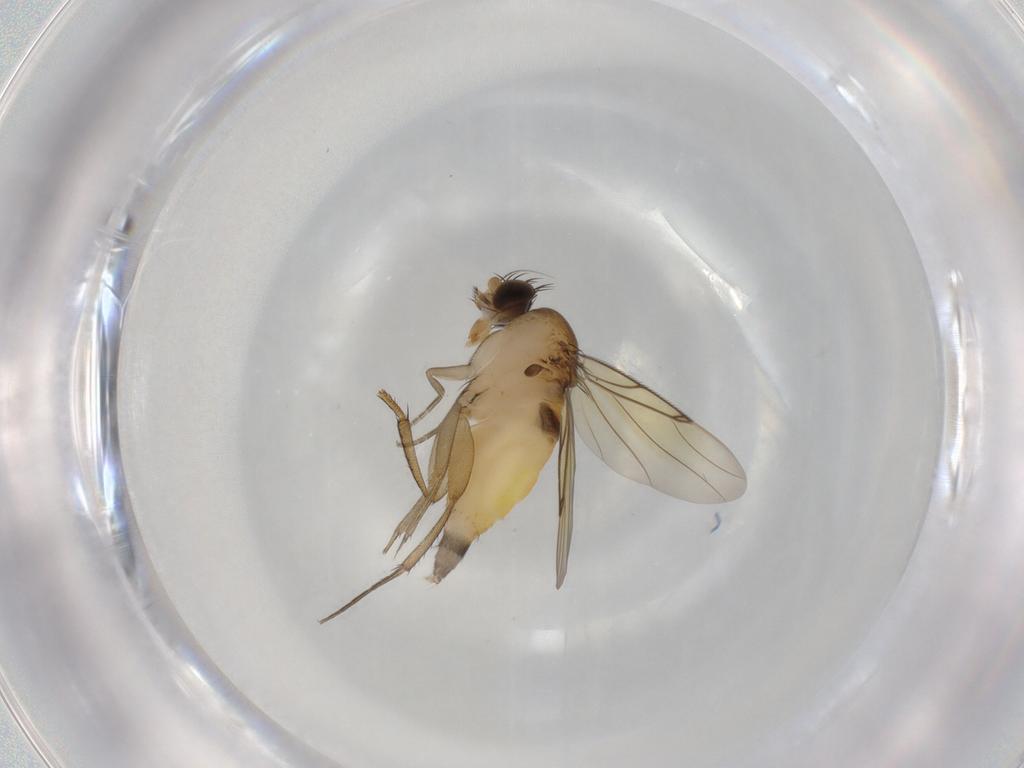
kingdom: Animalia
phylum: Arthropoda
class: Insecta
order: Diptera
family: Phoridae
